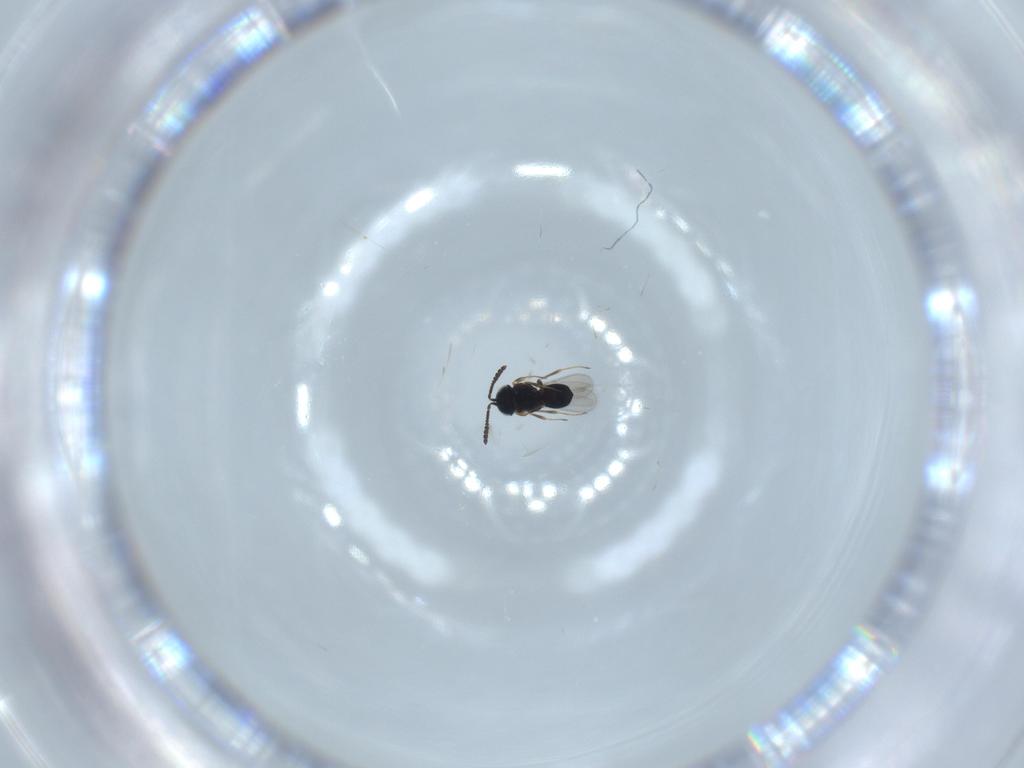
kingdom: Animalia
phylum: Arthropoda
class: Insecta
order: Hymenoptera
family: Scelionidae
